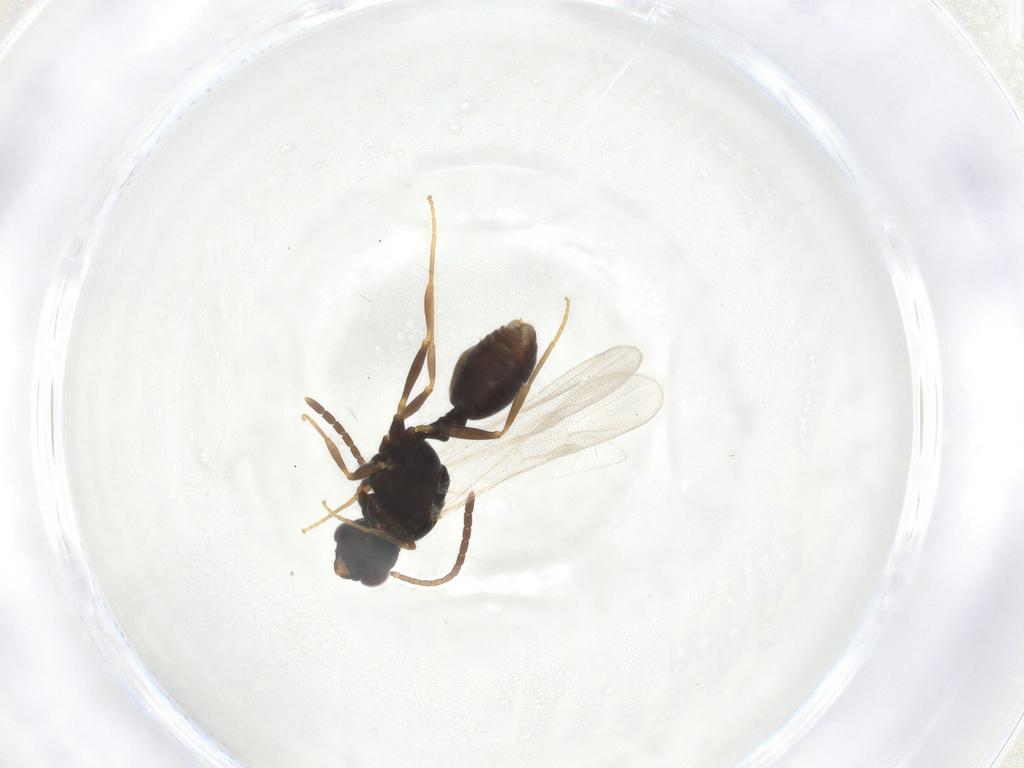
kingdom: Animalia
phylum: Arthropoda
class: Insecta
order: Hymenoptera
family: Formicidae
